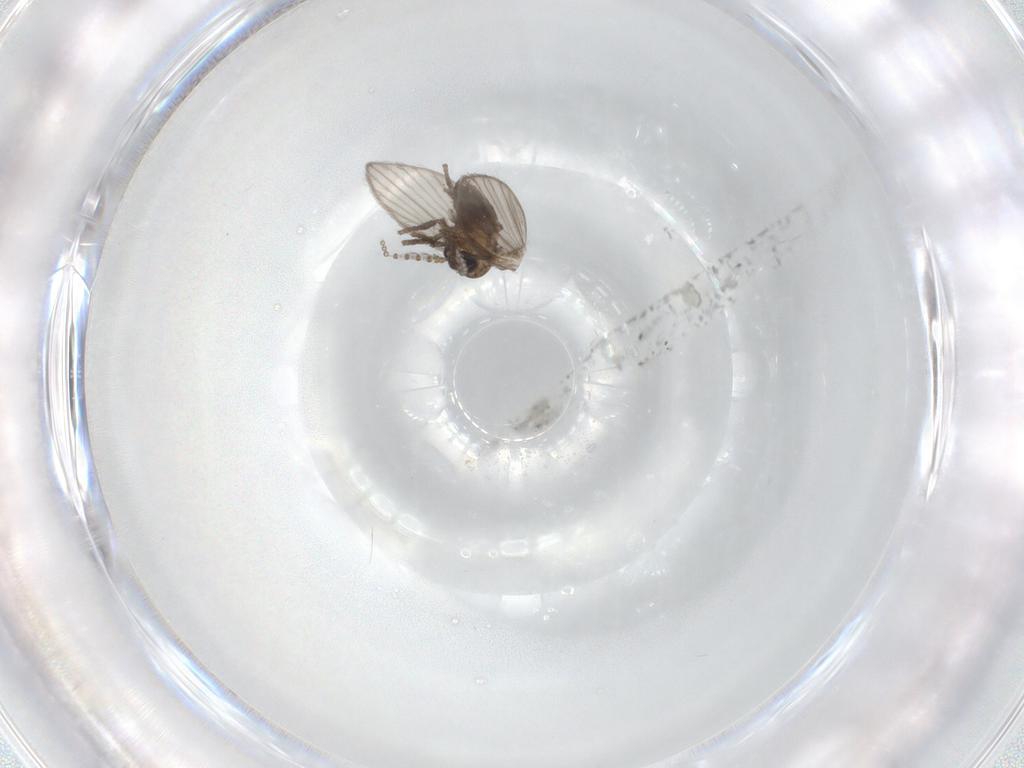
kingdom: Animalia
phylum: Arthropoda
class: Insecta
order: Diptera
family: Psychodidae
